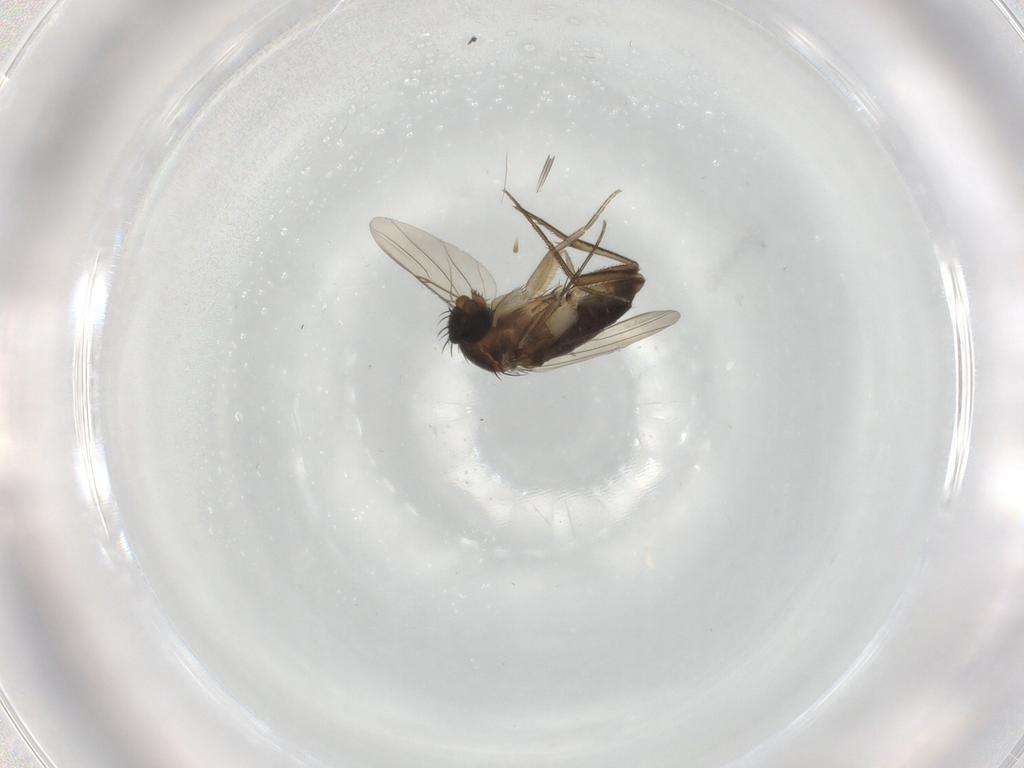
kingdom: Animalia
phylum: Arthropoda
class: Insecta
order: Diptera
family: Phoridae
